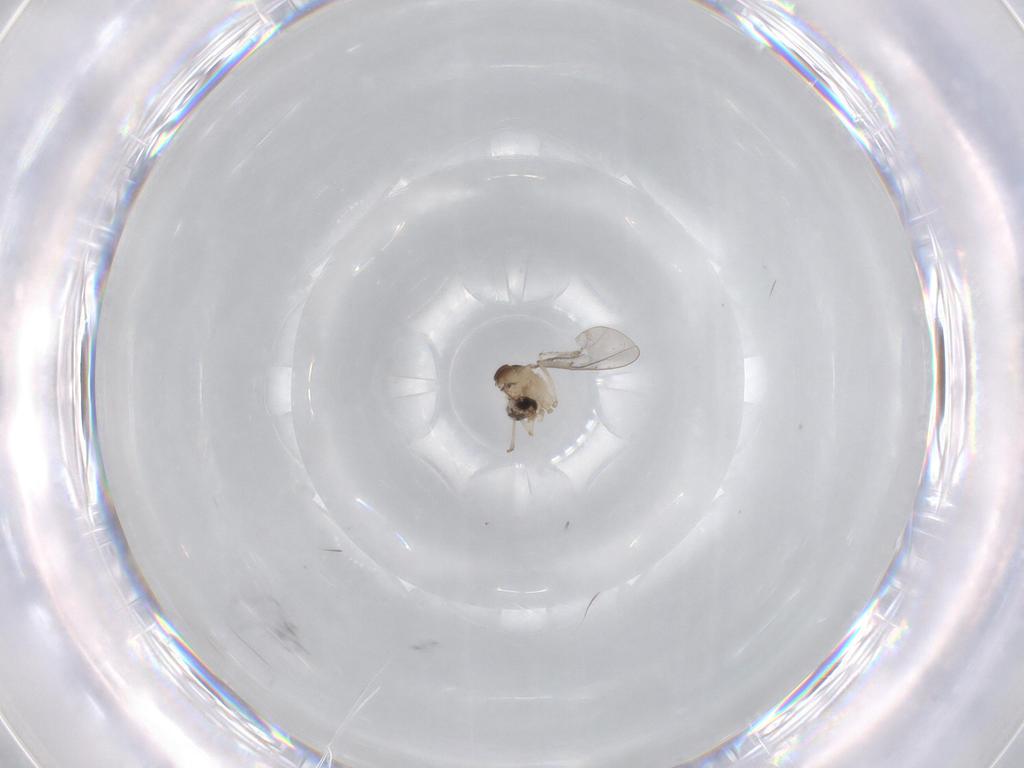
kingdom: Animalia
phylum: Arthropoda
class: Insecta
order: Diptera
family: Cecidomyiidae
